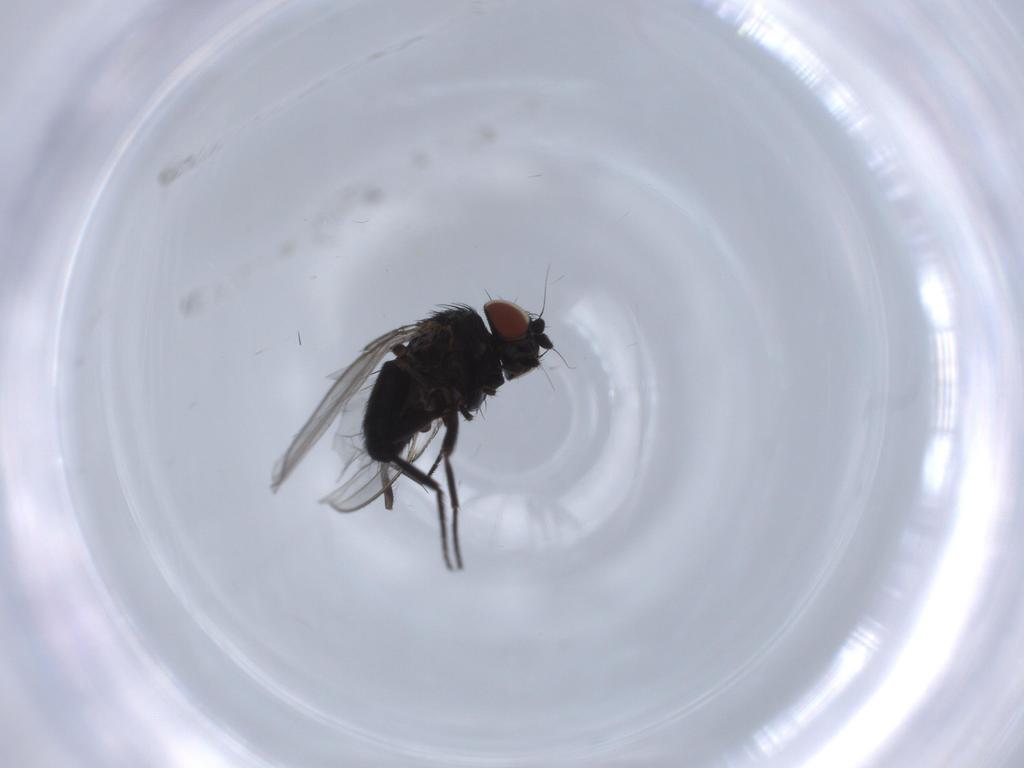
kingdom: Animalia
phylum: Arthropoda
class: Insecta
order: Diptera
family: Milichiidae
